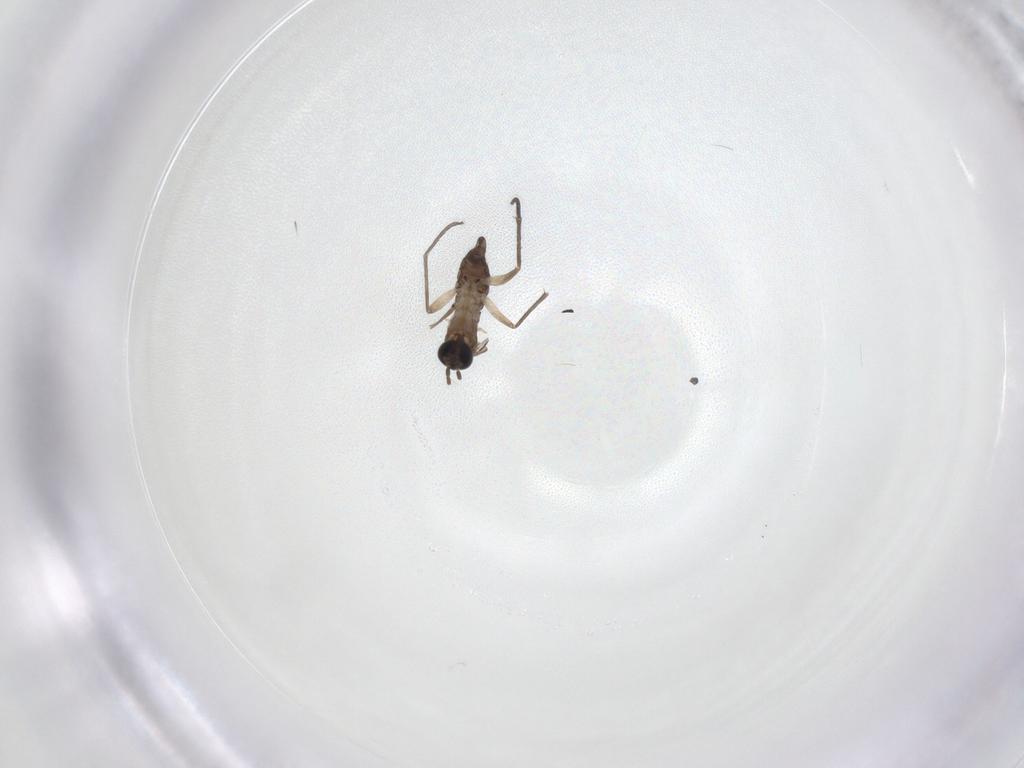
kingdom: Animalia
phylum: Arthropoda
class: Insecta
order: Diptera
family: Sciaridae
